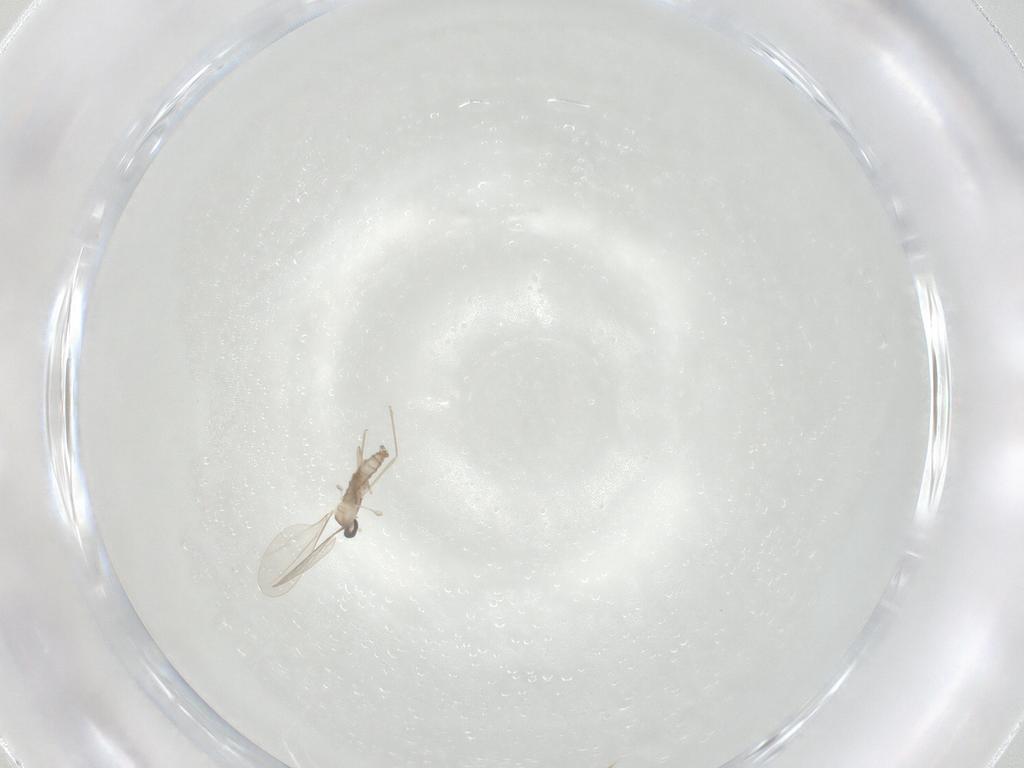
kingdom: Animalia
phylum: Arthropoda
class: Insecta
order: Diptera
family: Cecidomyiidae
